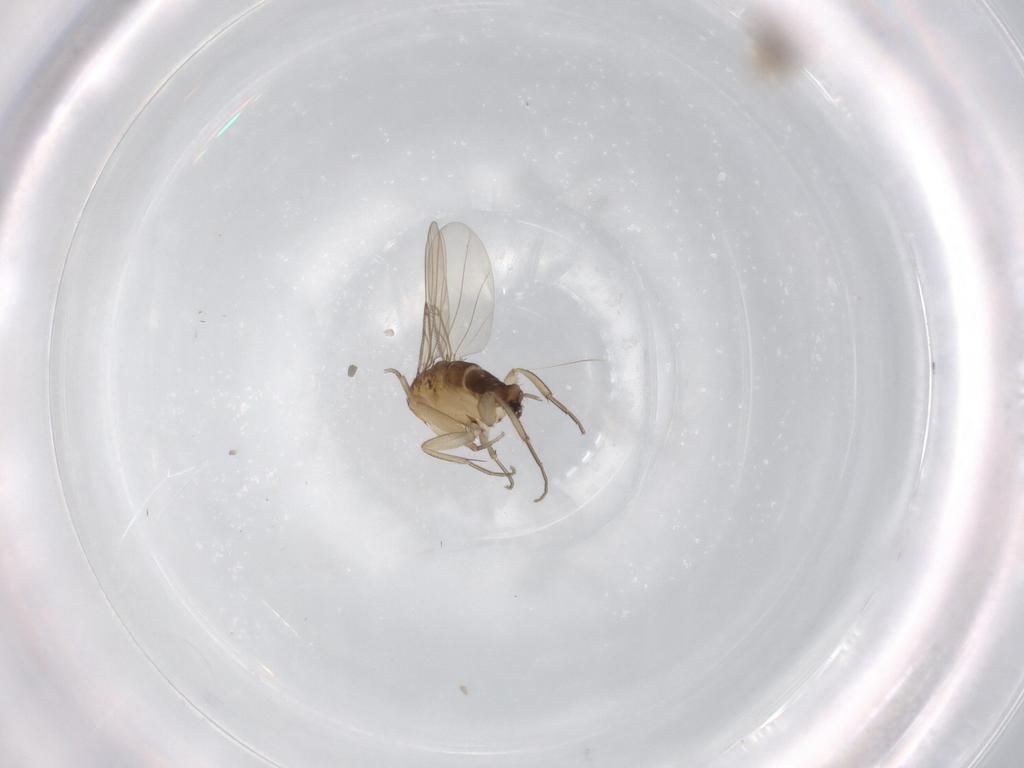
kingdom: Animalia
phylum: Arthropoda
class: Insecta
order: Diptera
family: Phoridae
